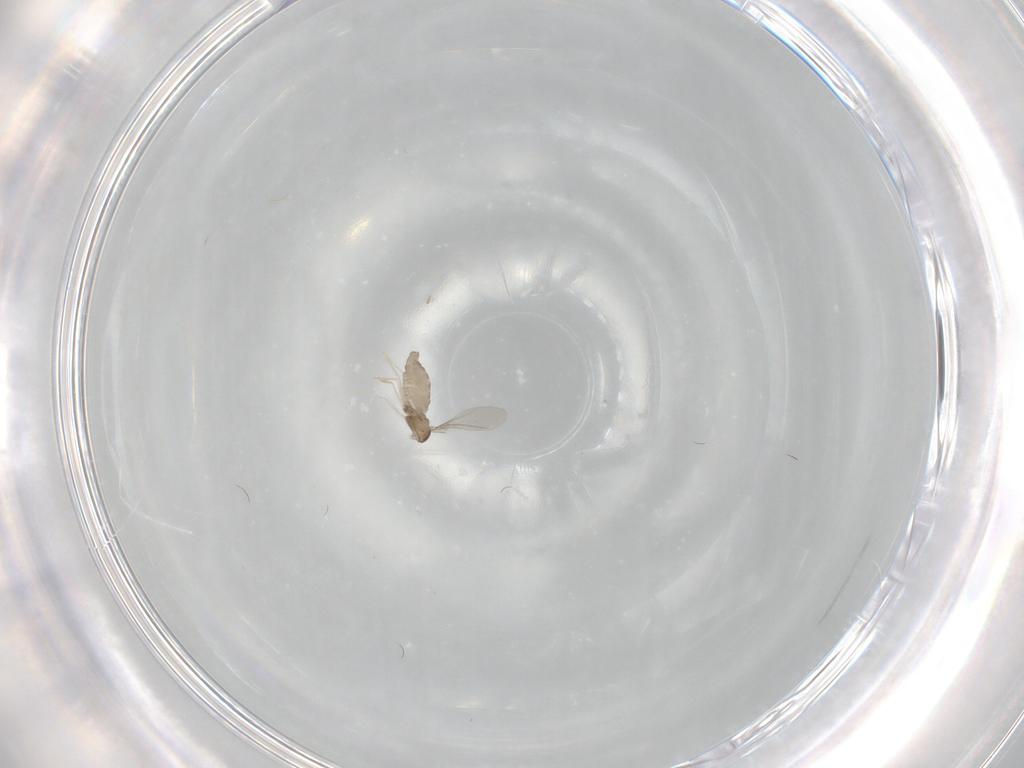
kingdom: Animalia
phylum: Arthropoda
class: Insecta
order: Diptera
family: Cecidomyiidae
